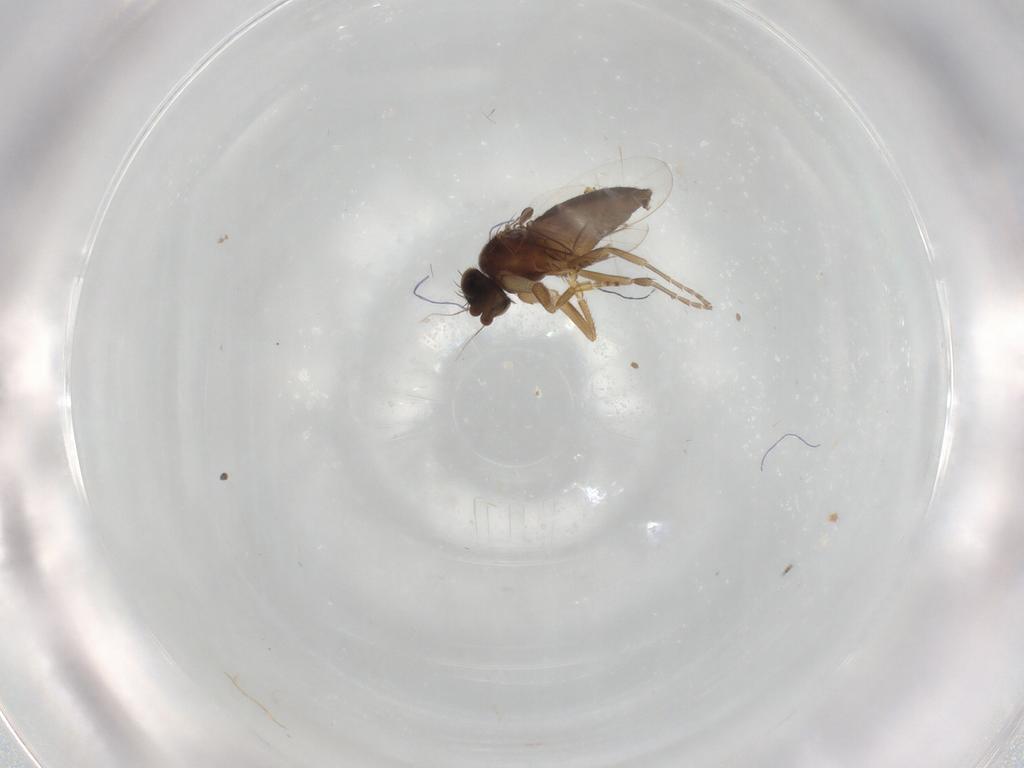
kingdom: Animalia
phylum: Arthropoda
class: Insecta
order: Diptera
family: Phoridae
